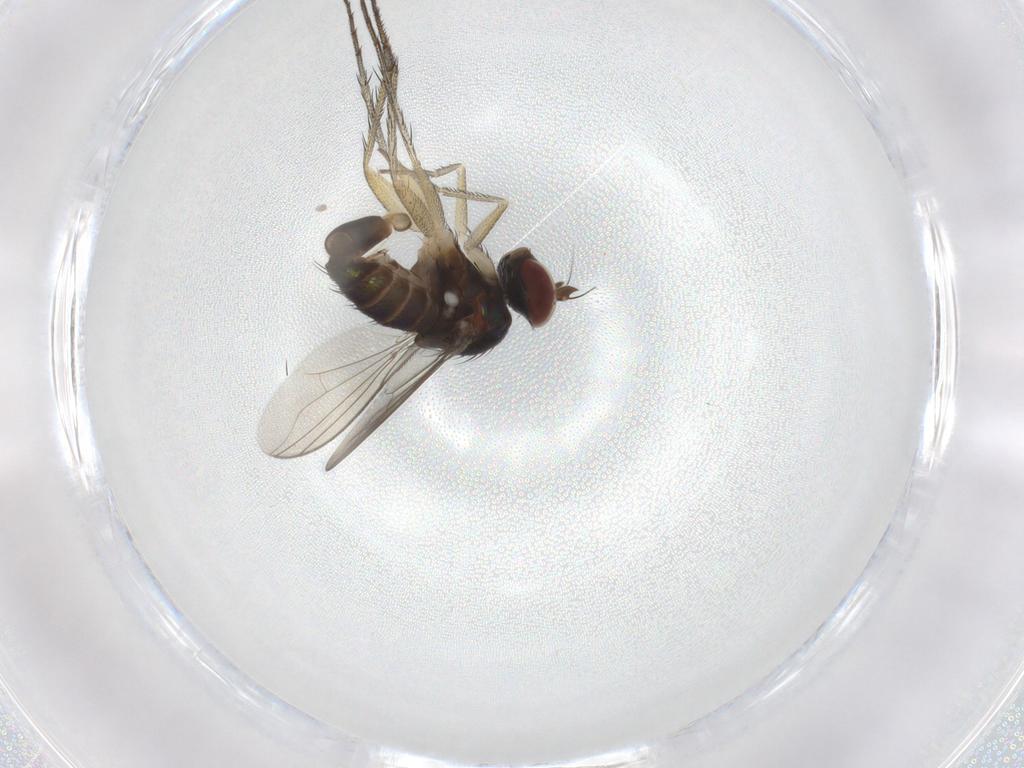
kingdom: Animalia
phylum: Arthropoda
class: Insecta
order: Diptera
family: Dolichopodidae
